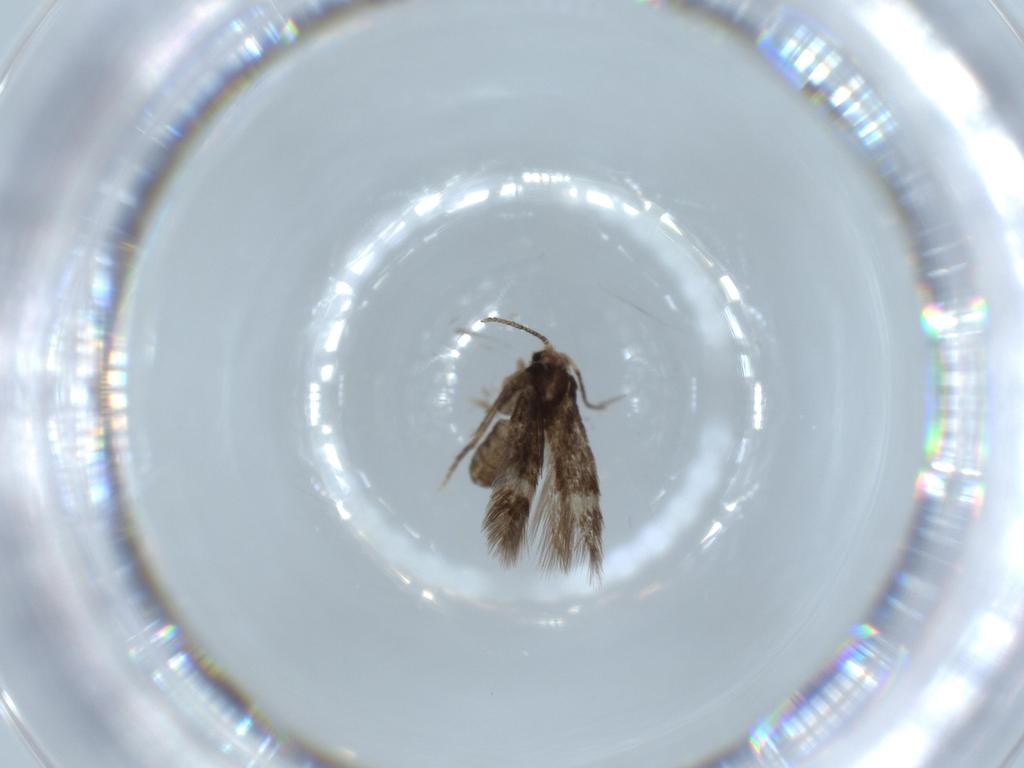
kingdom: Animalia
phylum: Arthropoda
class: Insecta
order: Lepidoptera
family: Nepticulidae
